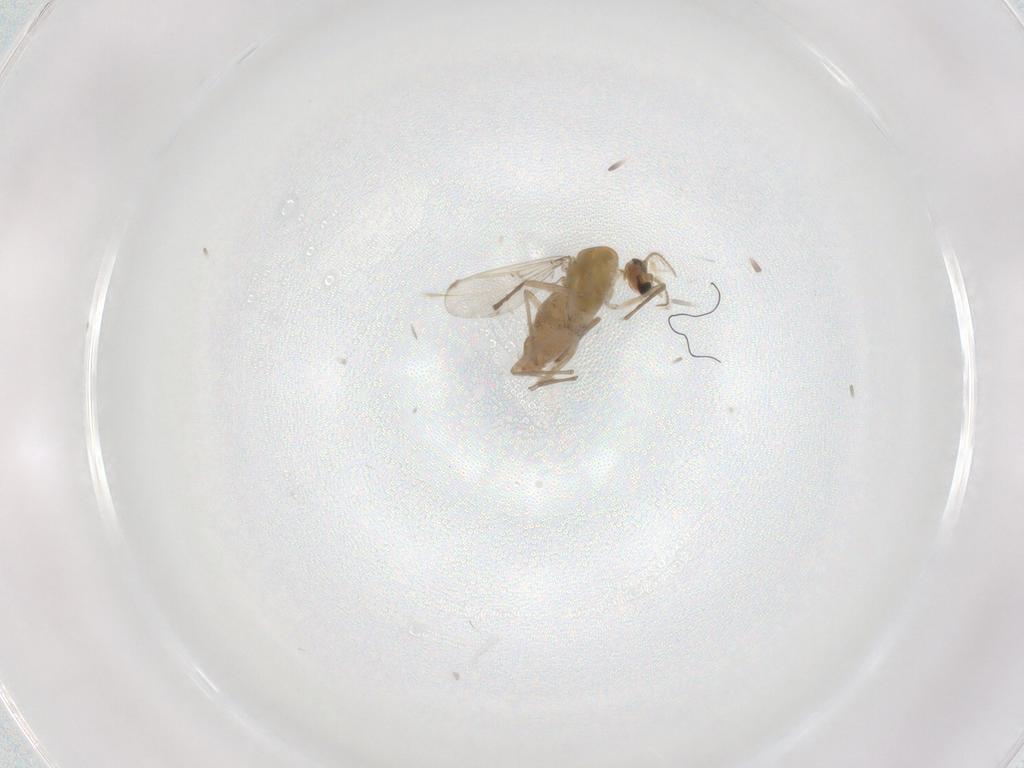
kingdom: Animalia
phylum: Arthropoda
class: Insecta
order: Diptera
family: Chironomidae
